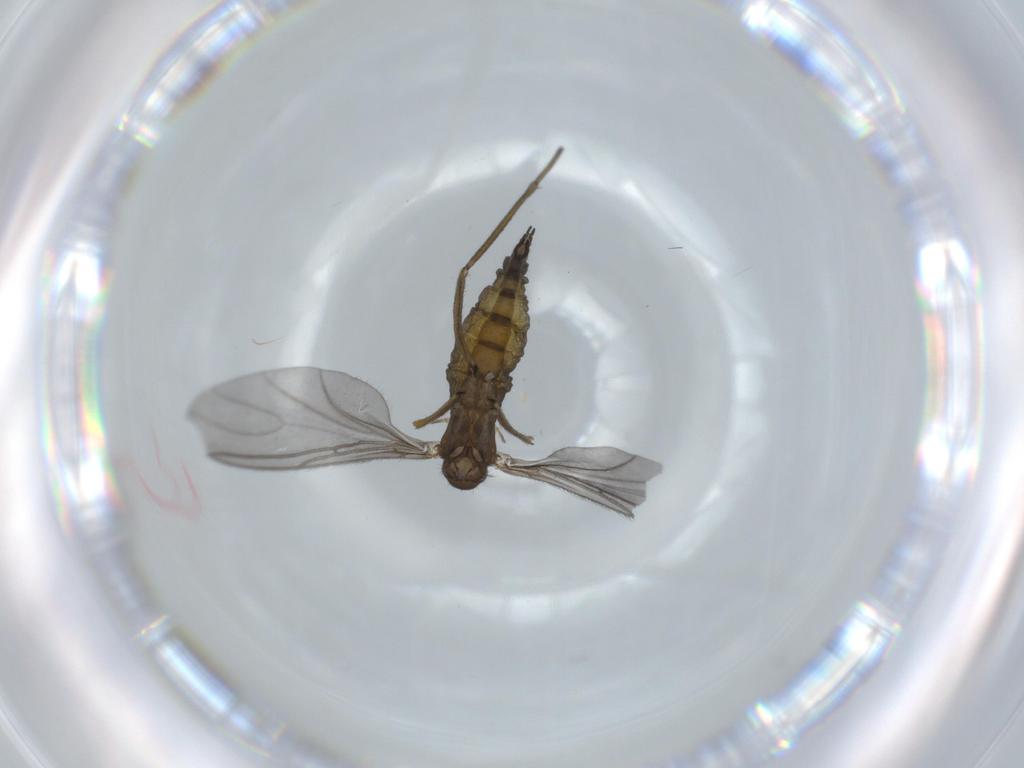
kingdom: Animalia
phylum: Arthropoda
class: Insecta
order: Diptera
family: Sciaridae
